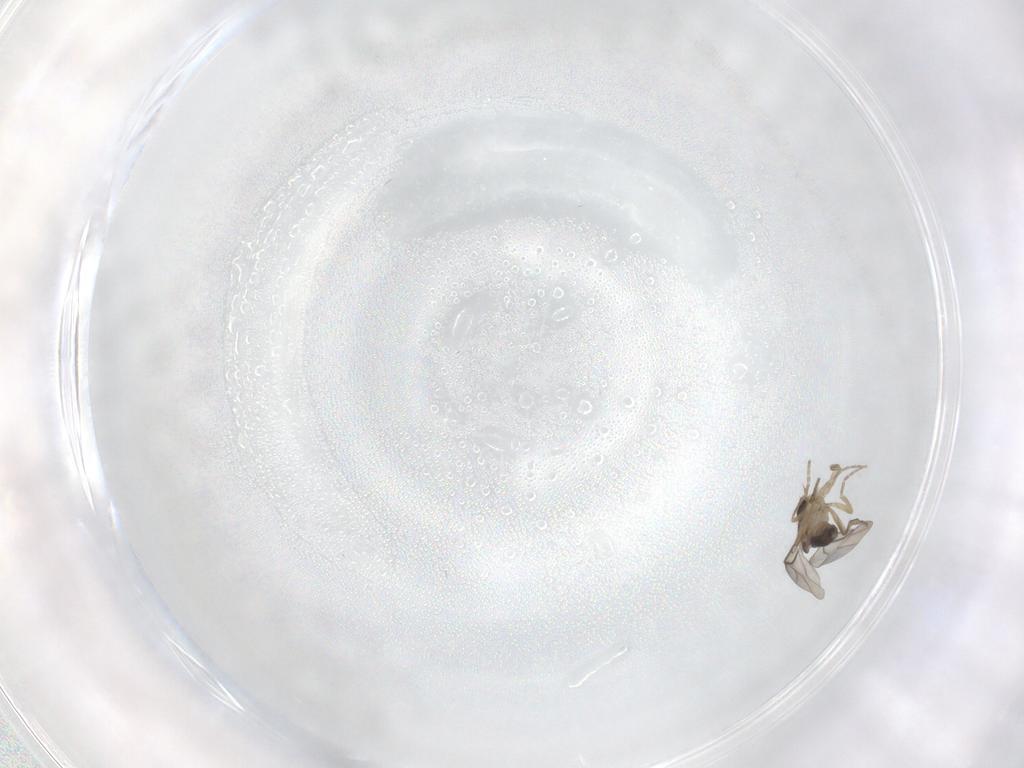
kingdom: Animalia
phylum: Arthropoda
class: Insecta
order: Diptera
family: Phoridae
